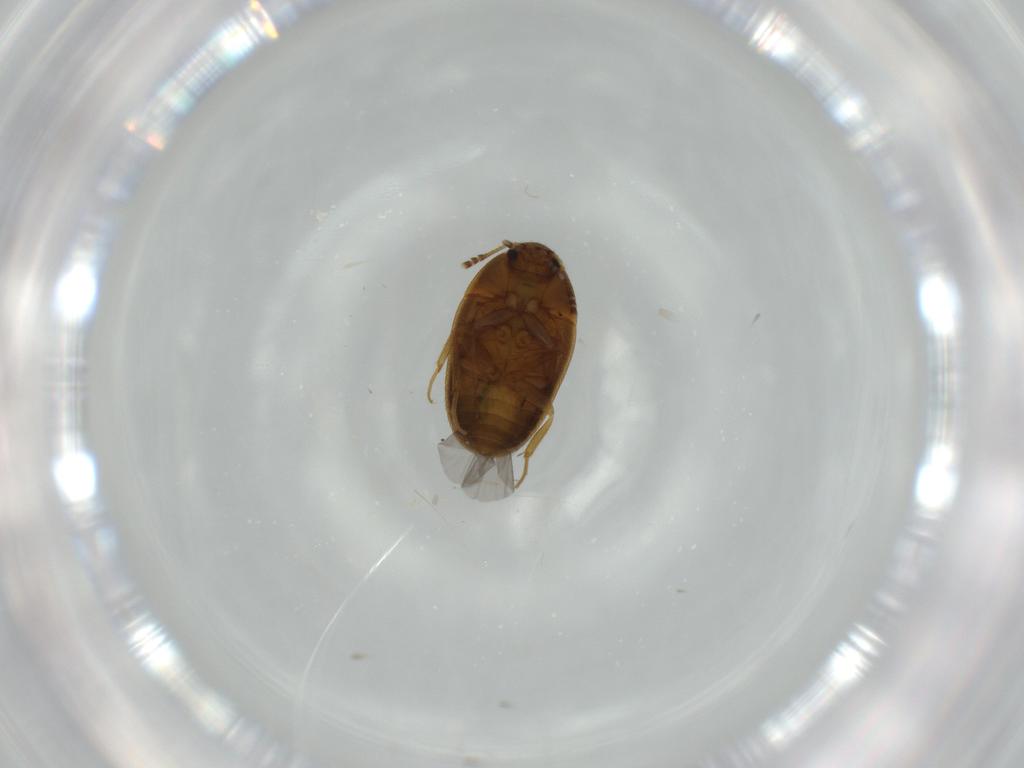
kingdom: Animalia
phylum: Arthropoda
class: Insecta
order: Coleoptera
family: Mycetophagidae
